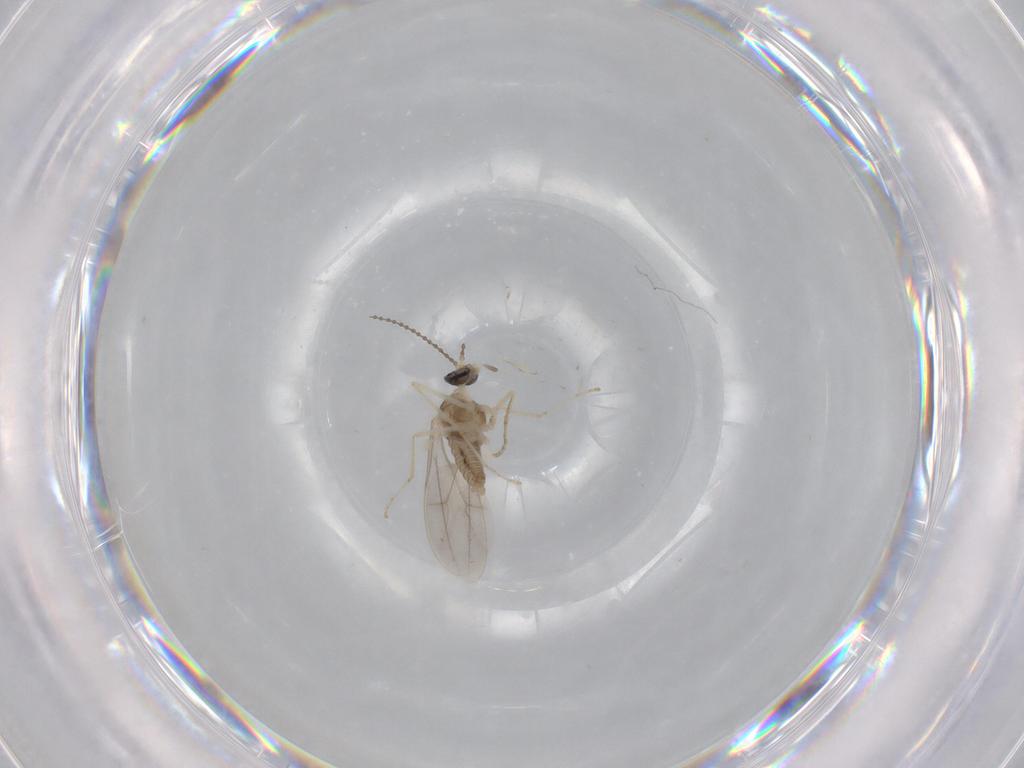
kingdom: Animalia
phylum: Arthropoda
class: Insecta
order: Diptera
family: Cecidomyiidae
